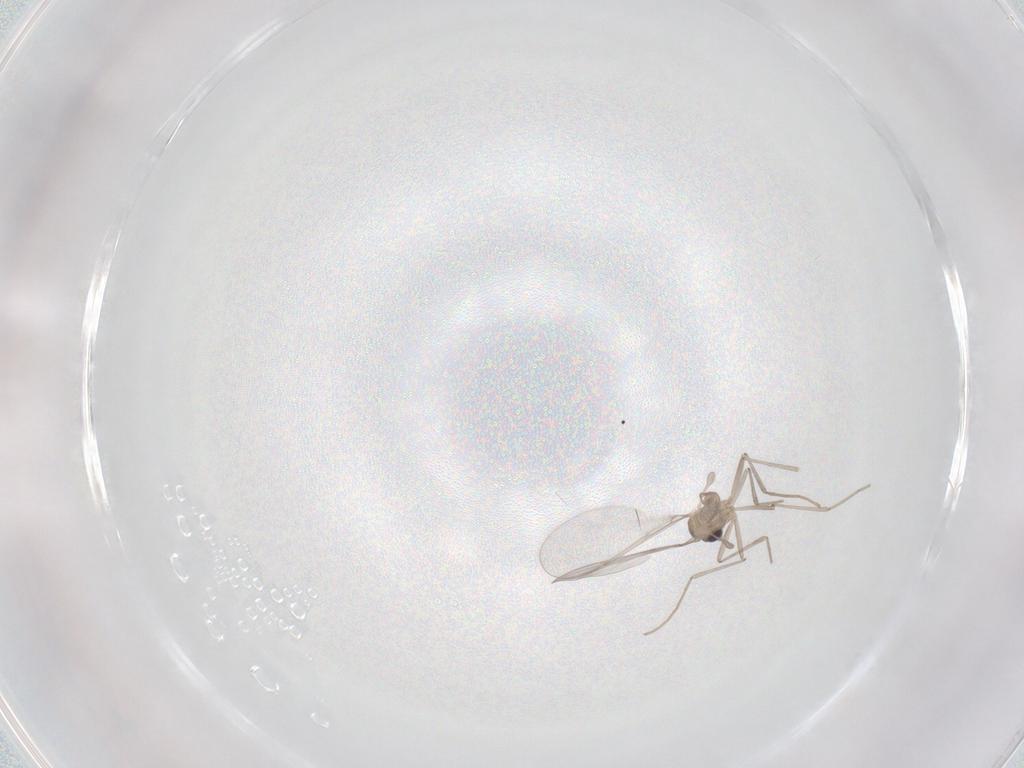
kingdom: Animalia
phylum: Arthropoda
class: Insecta
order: Diptera
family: Cecidomyiidae
